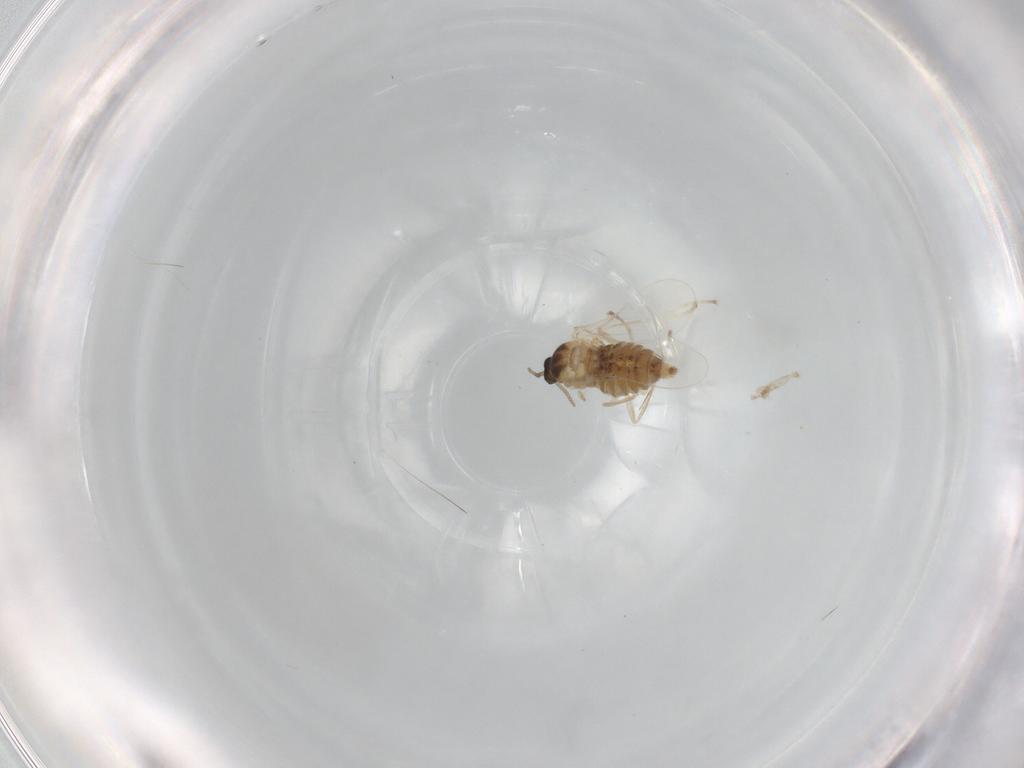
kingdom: Animalia
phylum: Arthropoda
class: Insecta
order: Diptera
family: Cecidomyiidae
